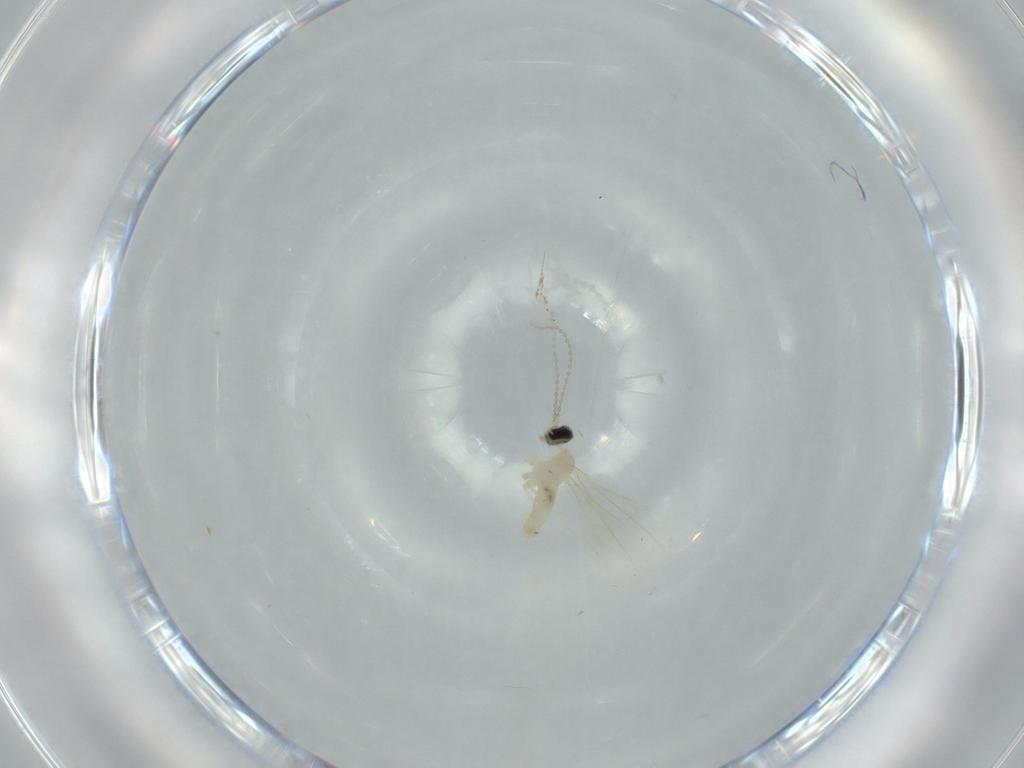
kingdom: Animalia
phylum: Arthropoda
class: Insecta
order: Diptera
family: Cecidomyiidae
